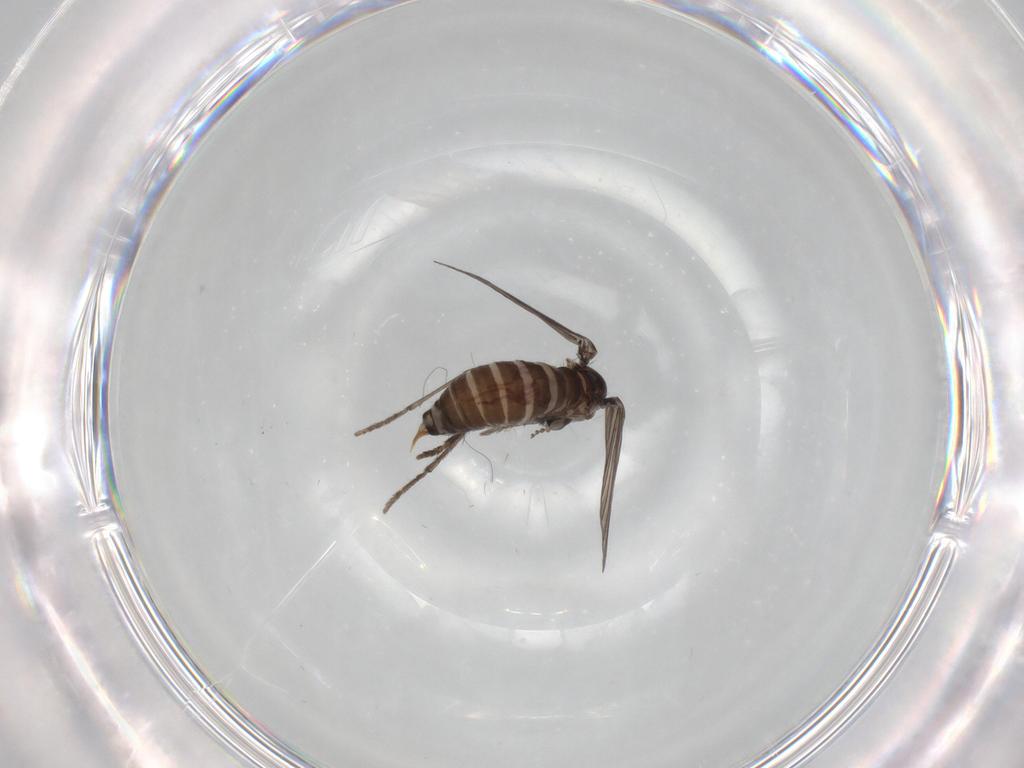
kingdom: Animalia
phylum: Arthropoda
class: Insecta
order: Diptera
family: Psychodidae
